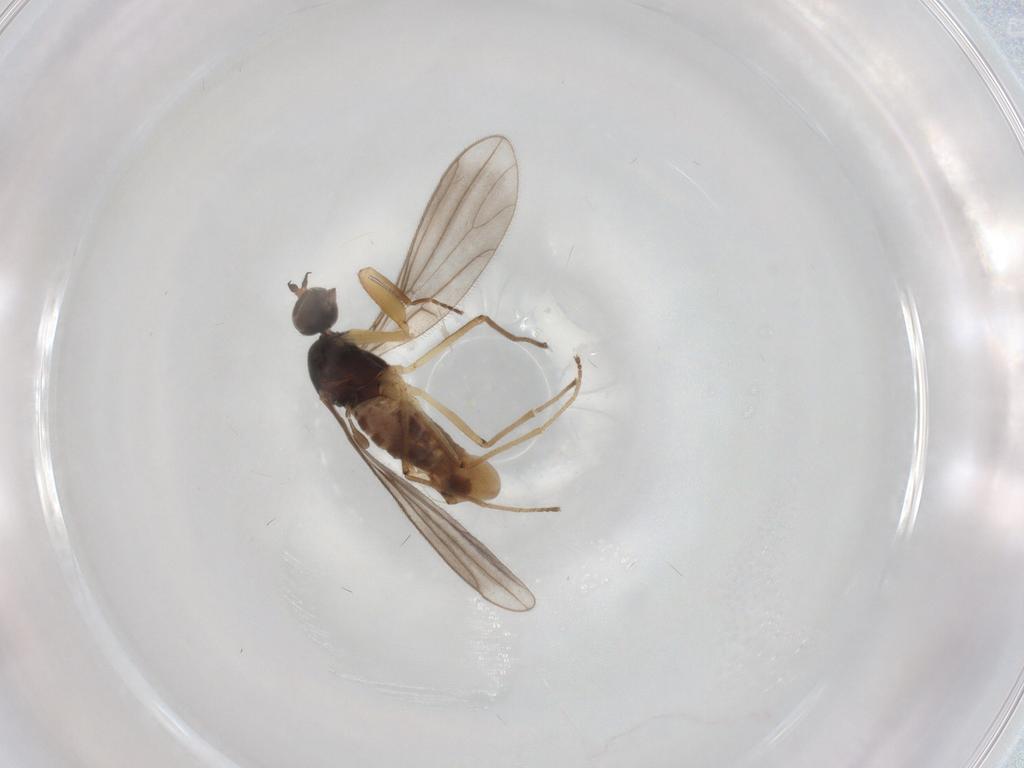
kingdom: Animalia
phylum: Arthropoda
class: Insecta
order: Diptera
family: Empididae
